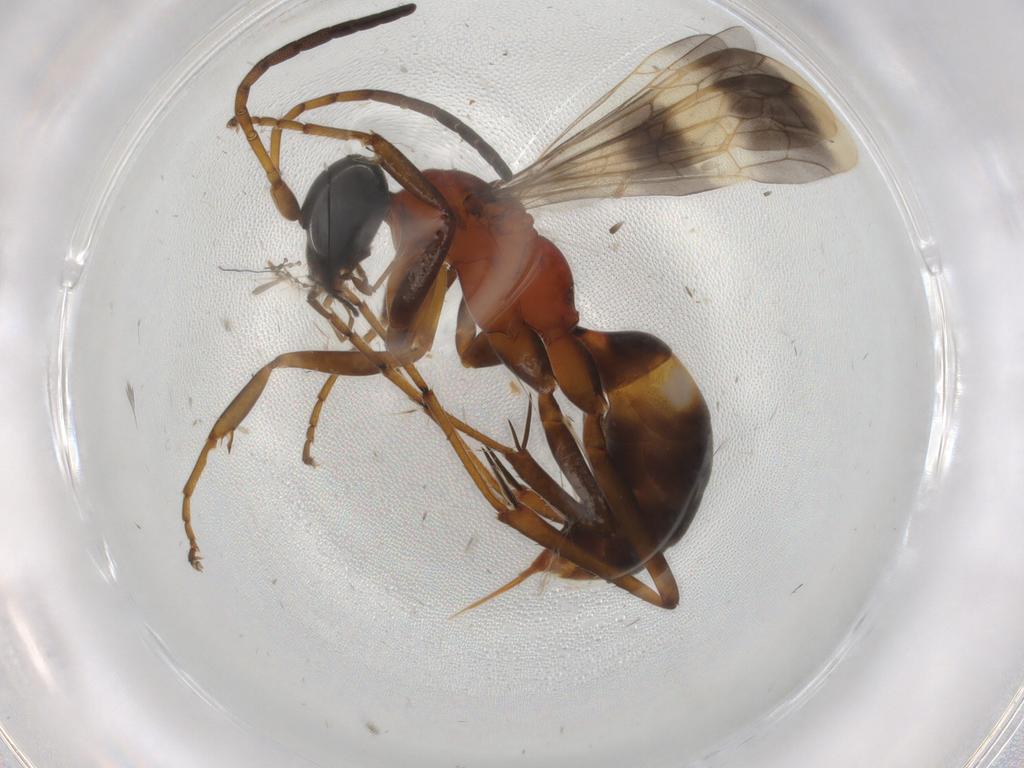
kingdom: Animalia
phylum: Arthropoda
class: Insecta
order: Hymenoptera
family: Pompilidae
